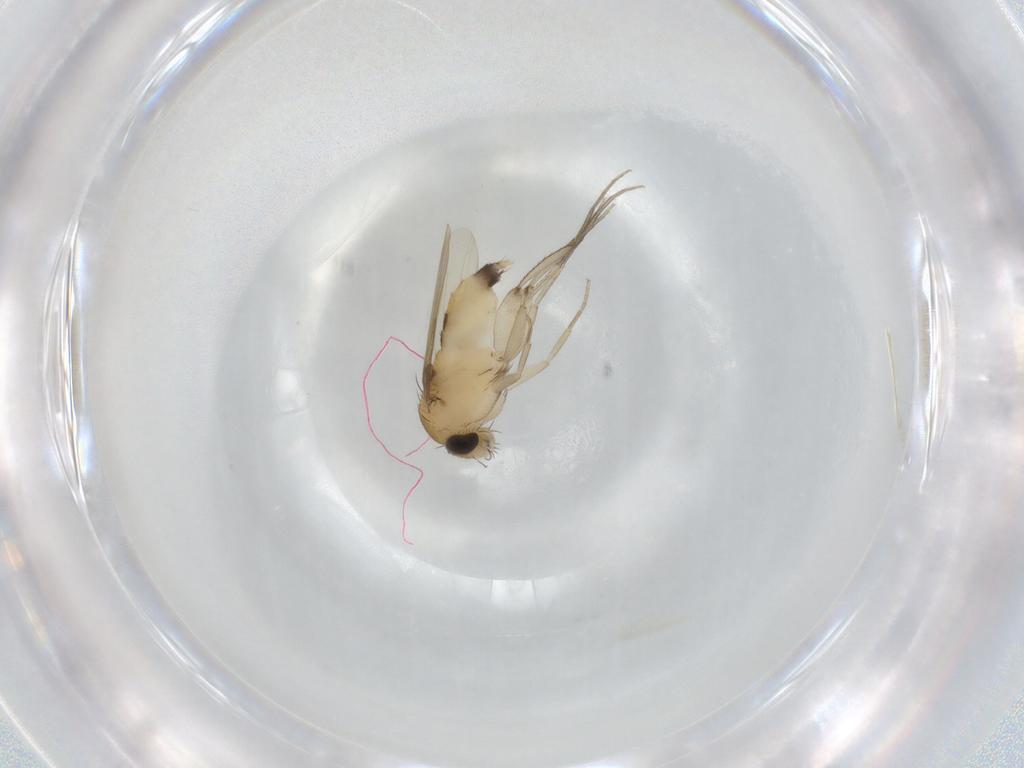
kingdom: Animalia
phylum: Arthropoda
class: Insecta
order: Diptera
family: Phoridae
